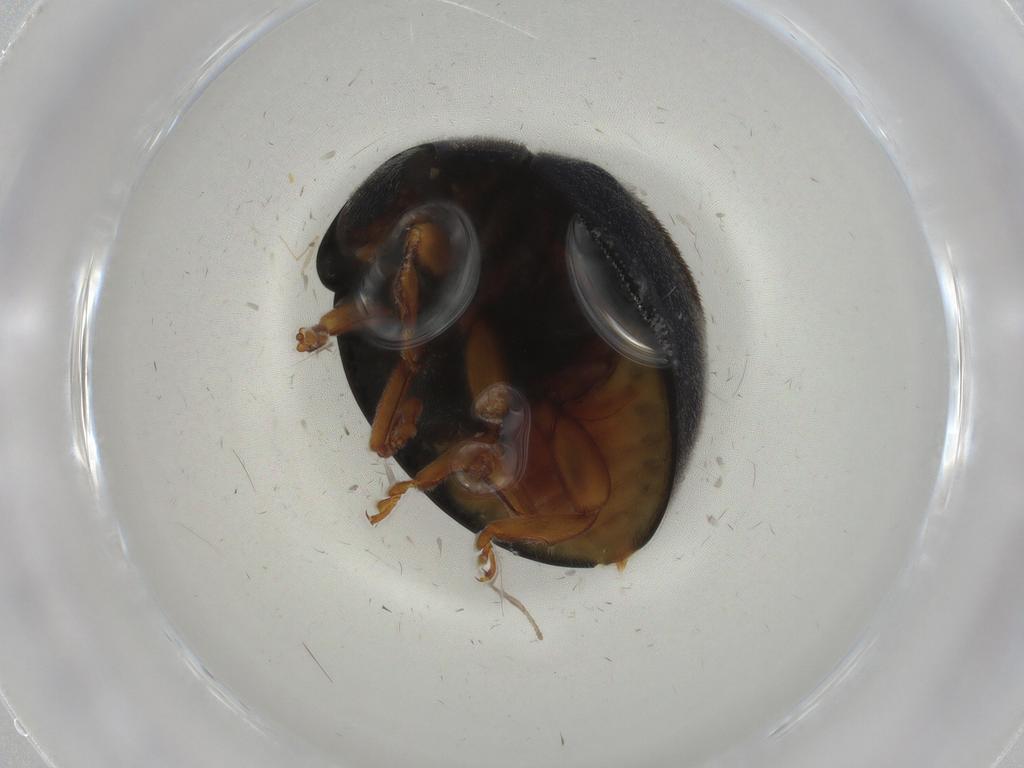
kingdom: Animalia
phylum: Arthropoda
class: Insecta
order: Coleoptera
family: Coccinellidae
